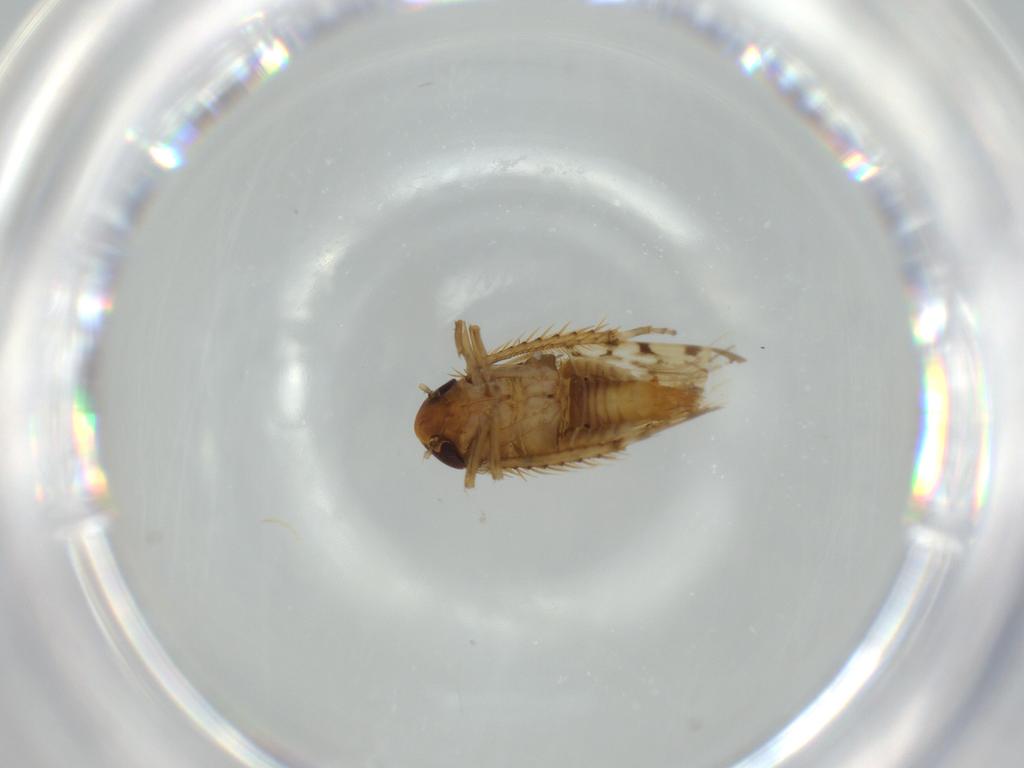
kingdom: Animalia
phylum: Arthropoda
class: Insecta
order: Hemiptera
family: Cicadellidae
